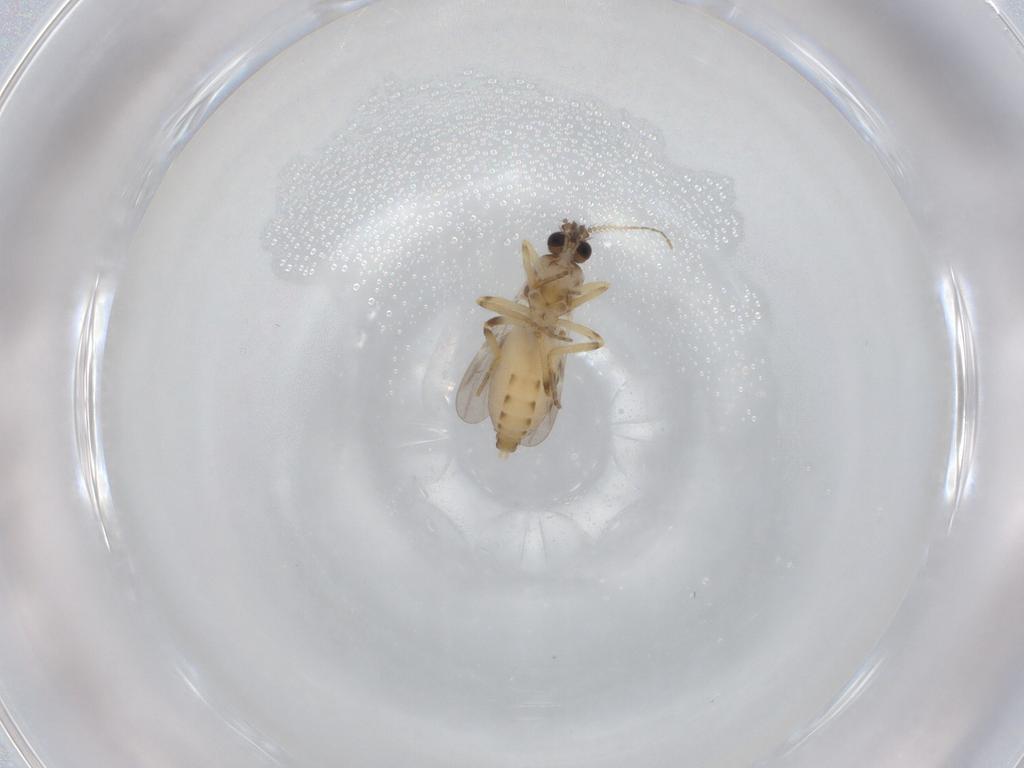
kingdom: Animalia
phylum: Arthropoda
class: Insecta
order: Diptera
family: Ceratopogonidae
